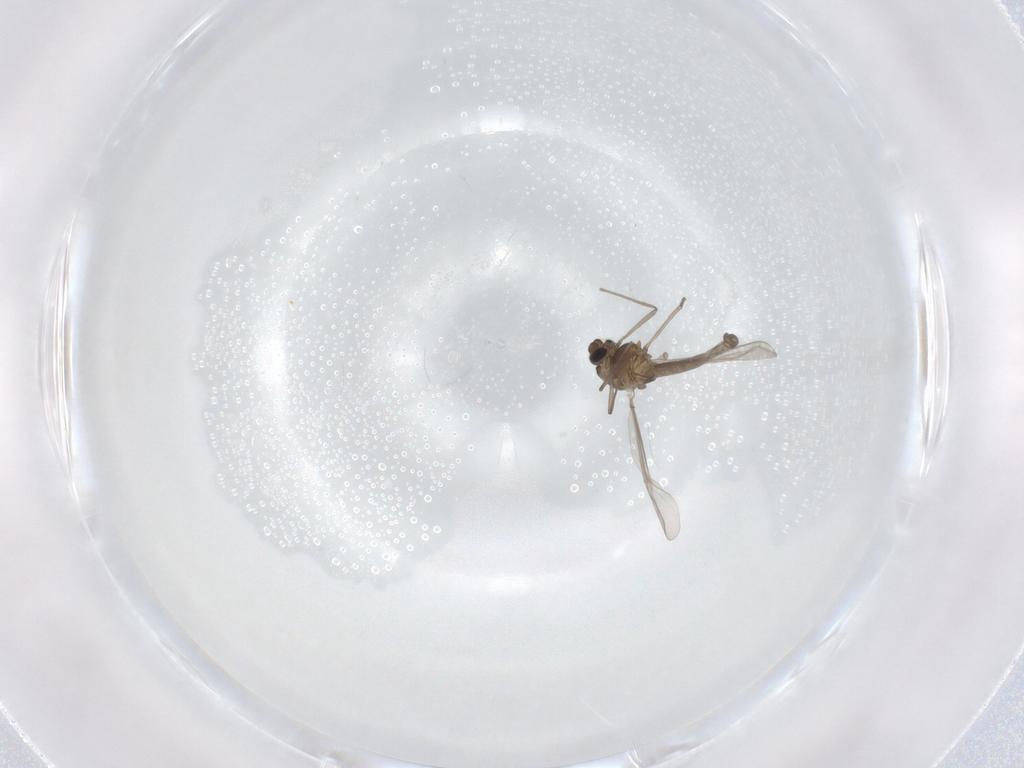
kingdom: Animalia
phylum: Arthropoda
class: Insecta
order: Diptera
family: Chironomidae
